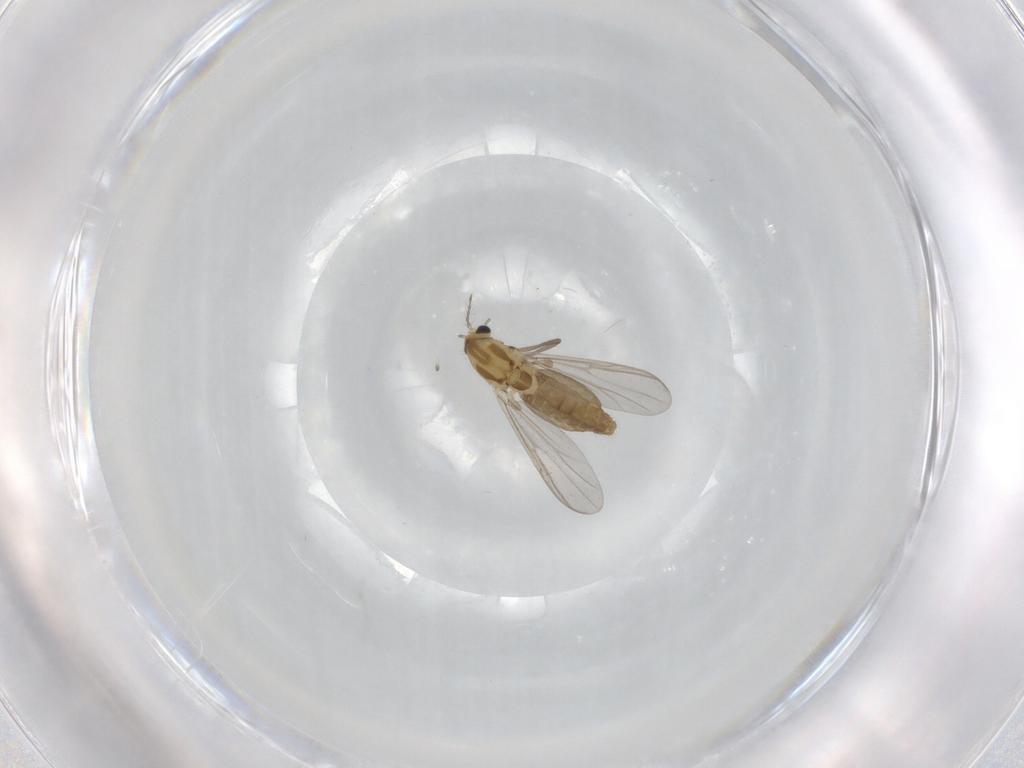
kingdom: Animalia
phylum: Arthropoda
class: Insecta
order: Diptera
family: Chironomidae
